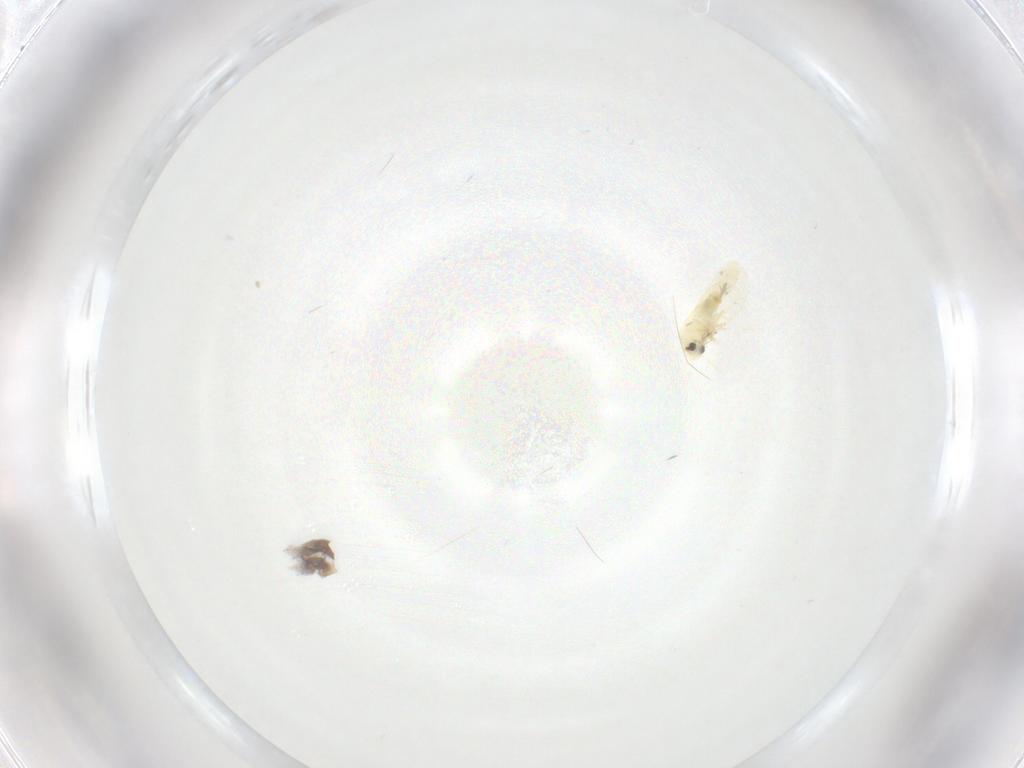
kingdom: Animalia
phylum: Arthropoda
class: Insecta
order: Hemiptera
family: Aleyrodidae
